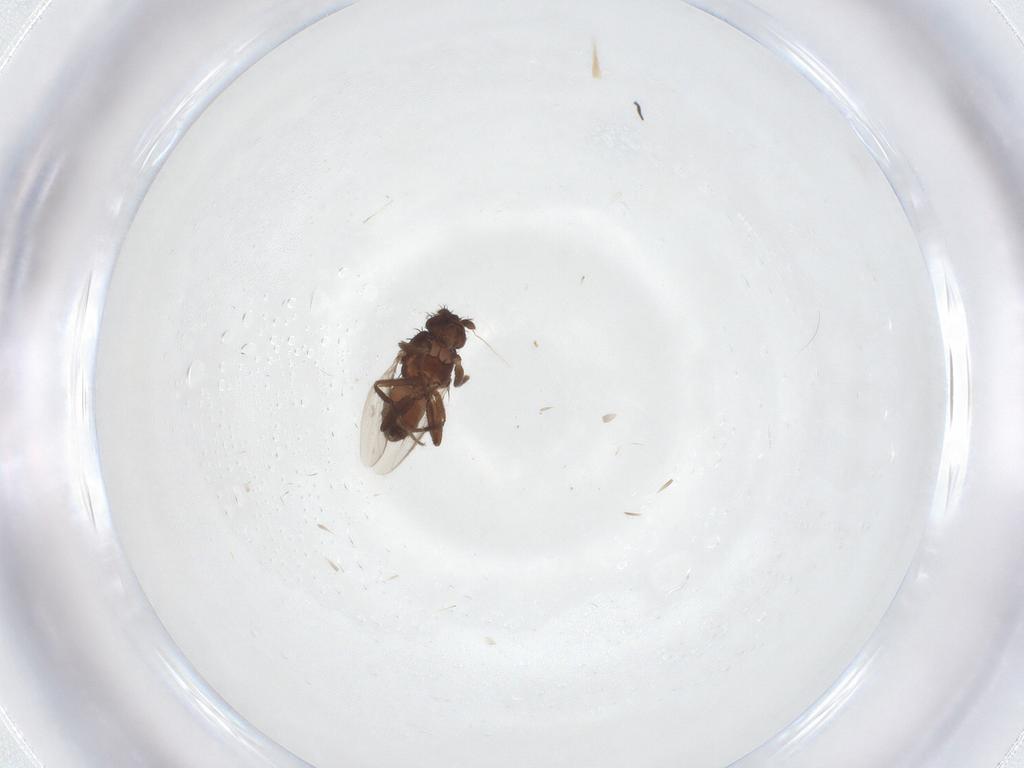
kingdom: Animalia
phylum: Arthropoda
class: Insecta
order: Diptera
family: Sphaeroceridae
